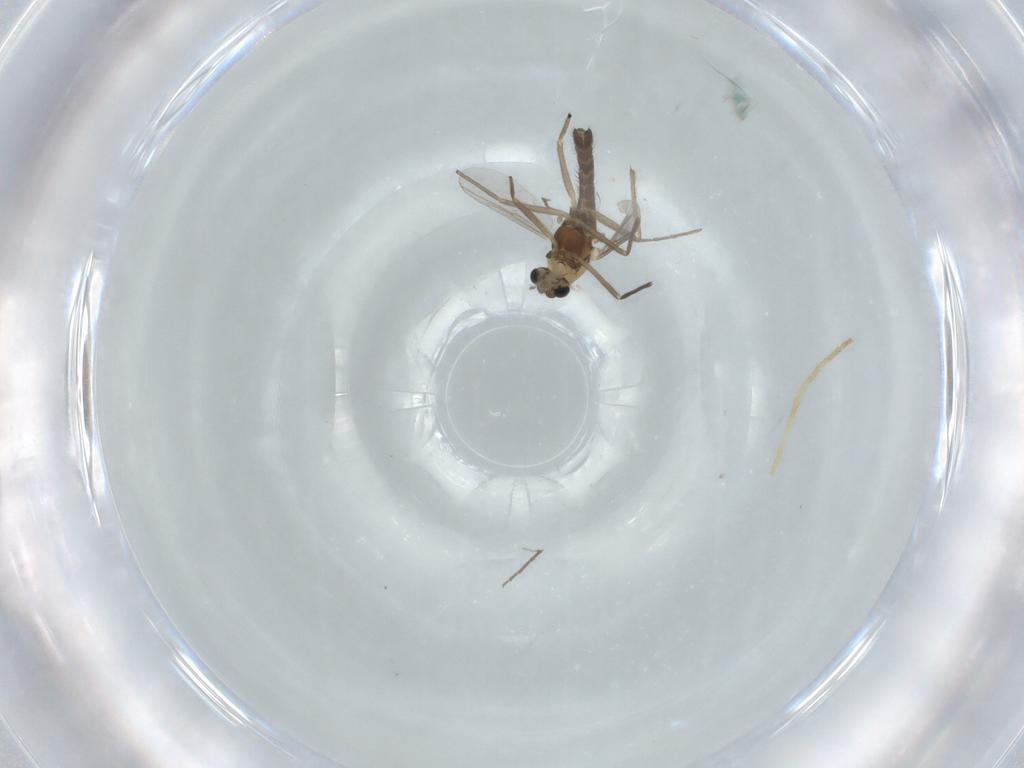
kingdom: Animalia
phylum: Arthropoda
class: Insecta
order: Diptera
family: Chironomidae
